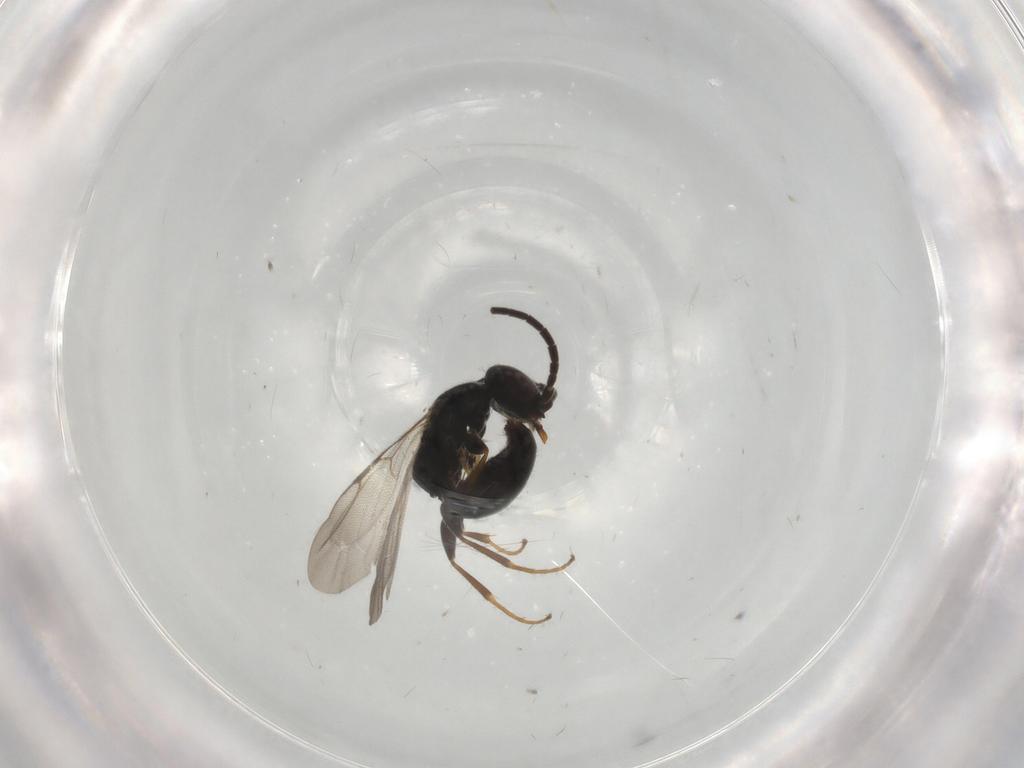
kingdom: Animalia
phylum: Arthropoda
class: Insecta
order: Hymenoptera
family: Bethylidae
